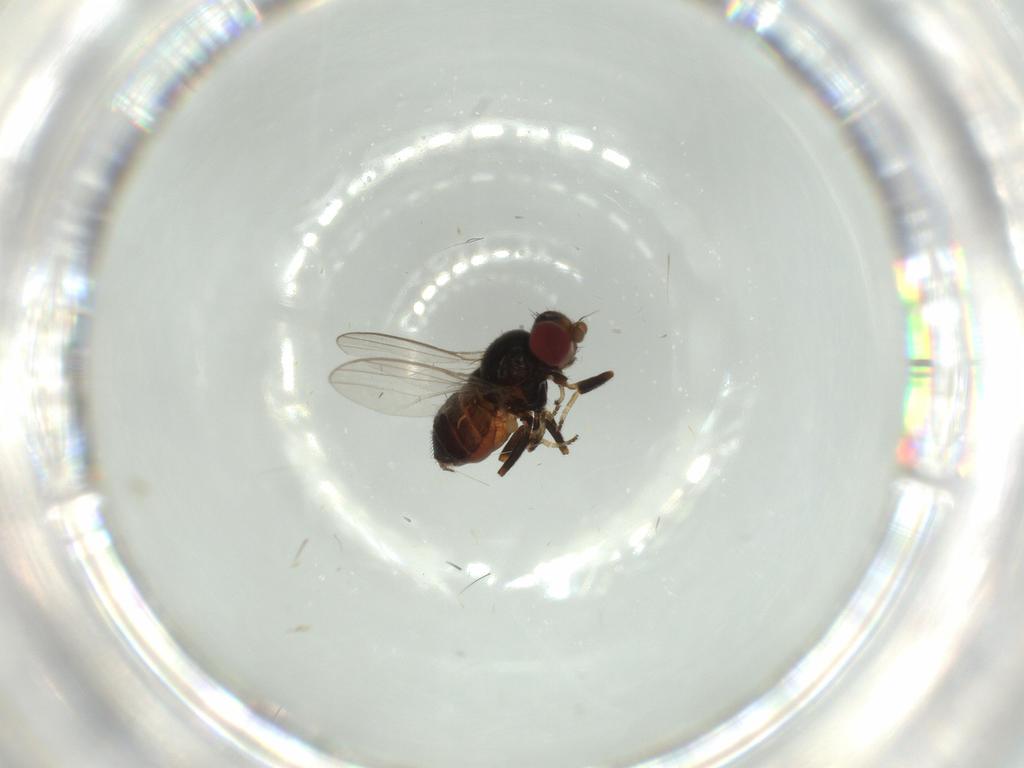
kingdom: Animalia
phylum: Arthropoda
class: Insecta
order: Diptera
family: Chloropidae
